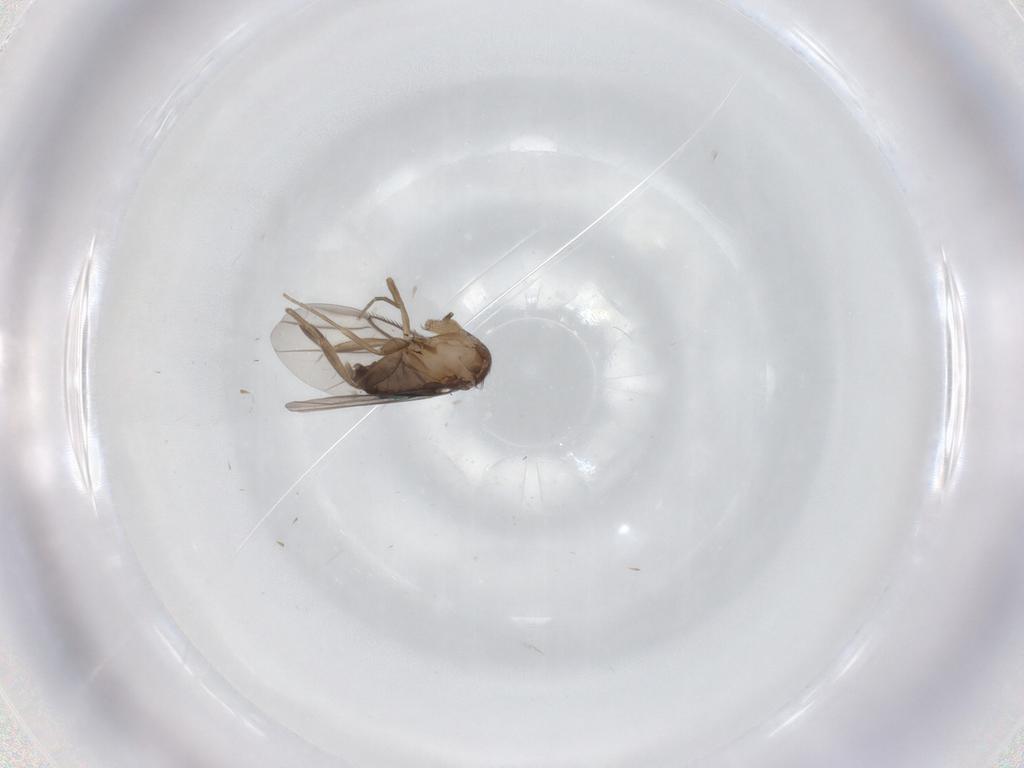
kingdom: Animalia
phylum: Arthropoda
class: Insecta
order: Diptera
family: Phoridae
